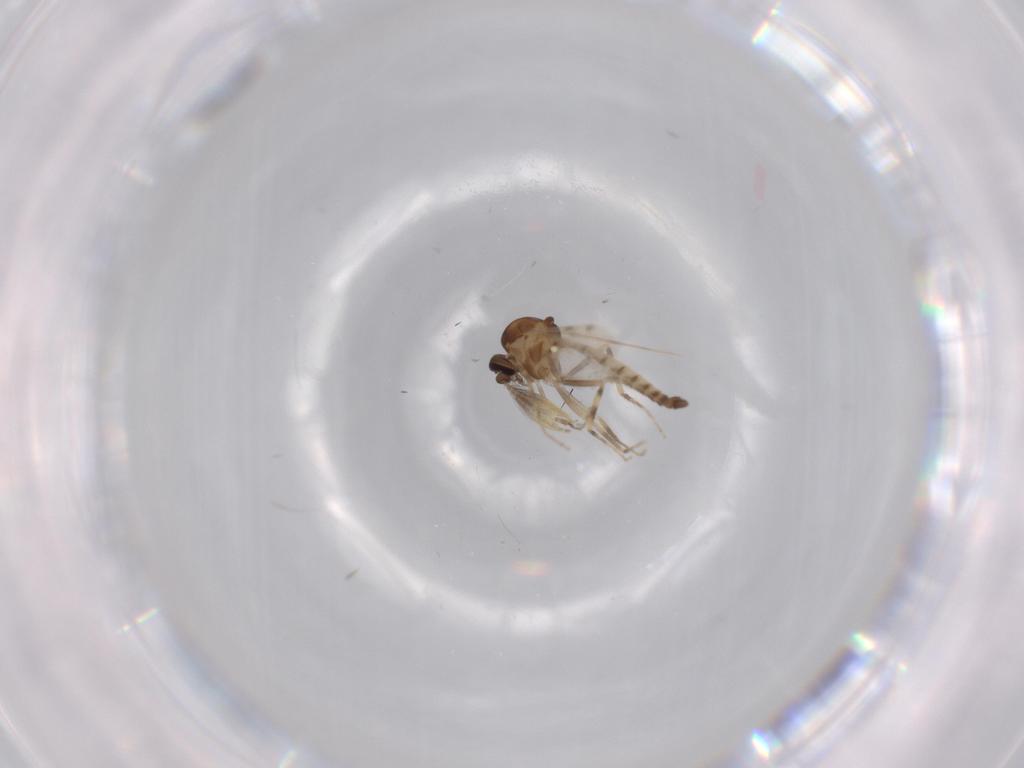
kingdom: Animalia
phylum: Arthropoda
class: Insecta
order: Diptera
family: Ceratopogonidae
